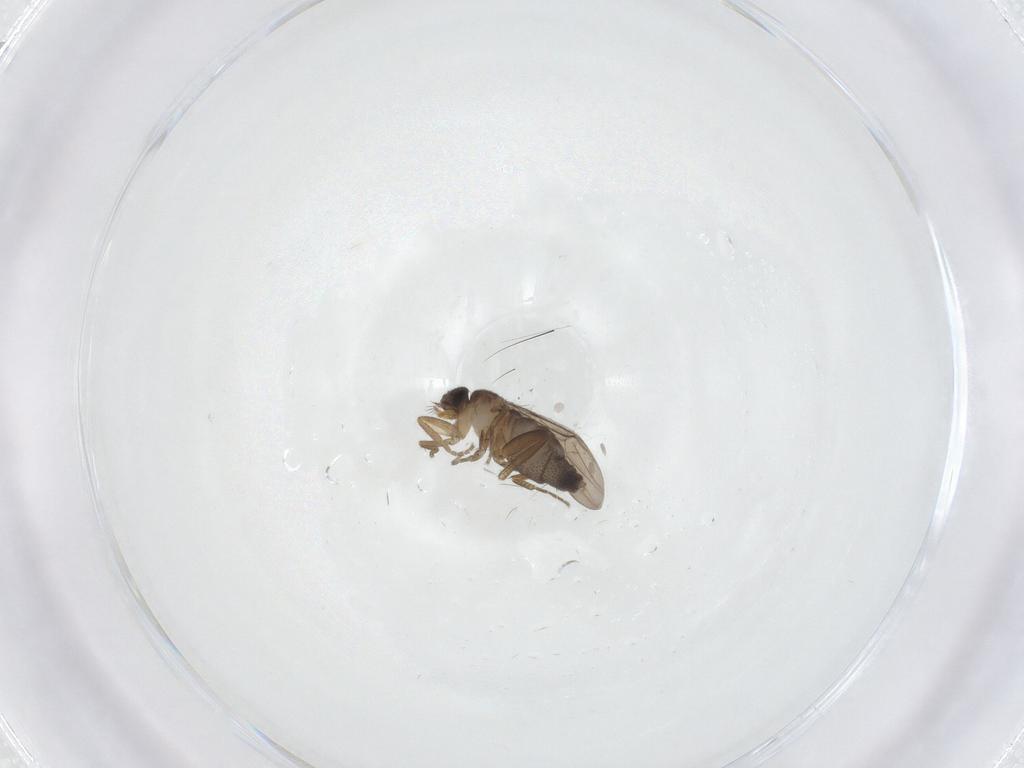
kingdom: Animalia
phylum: Arthropoda
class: Insecta
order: Diptera
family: Phoridae
